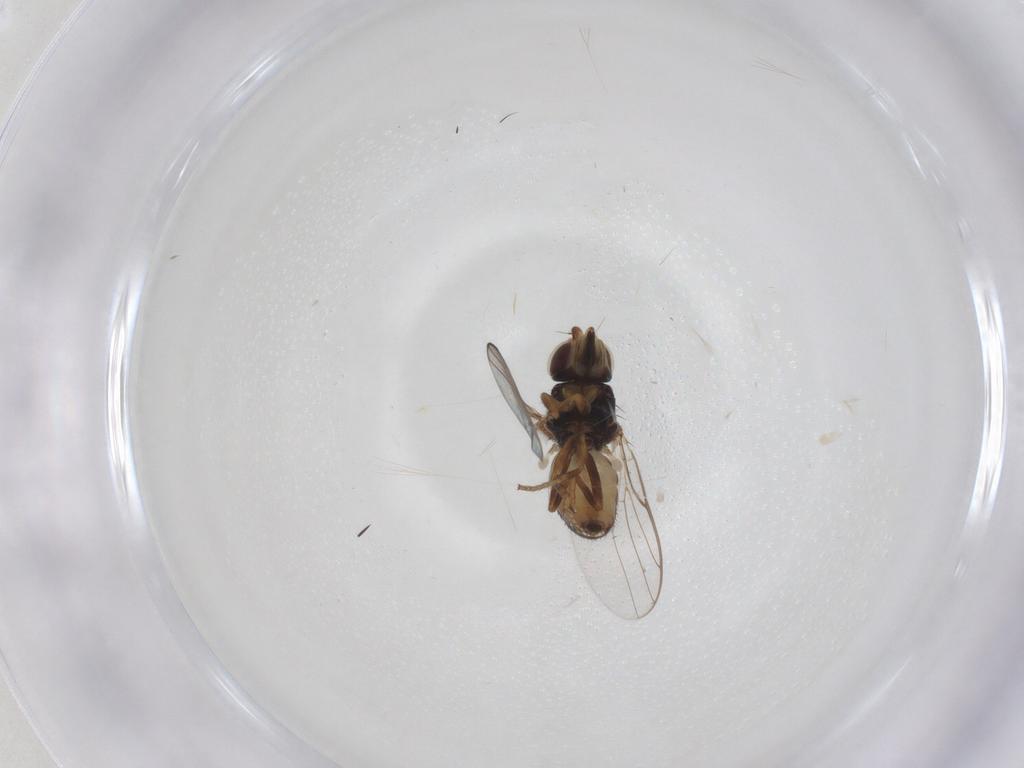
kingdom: Animalia
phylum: Arthropoda
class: Insecta
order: Diptera
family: Chloropidae
